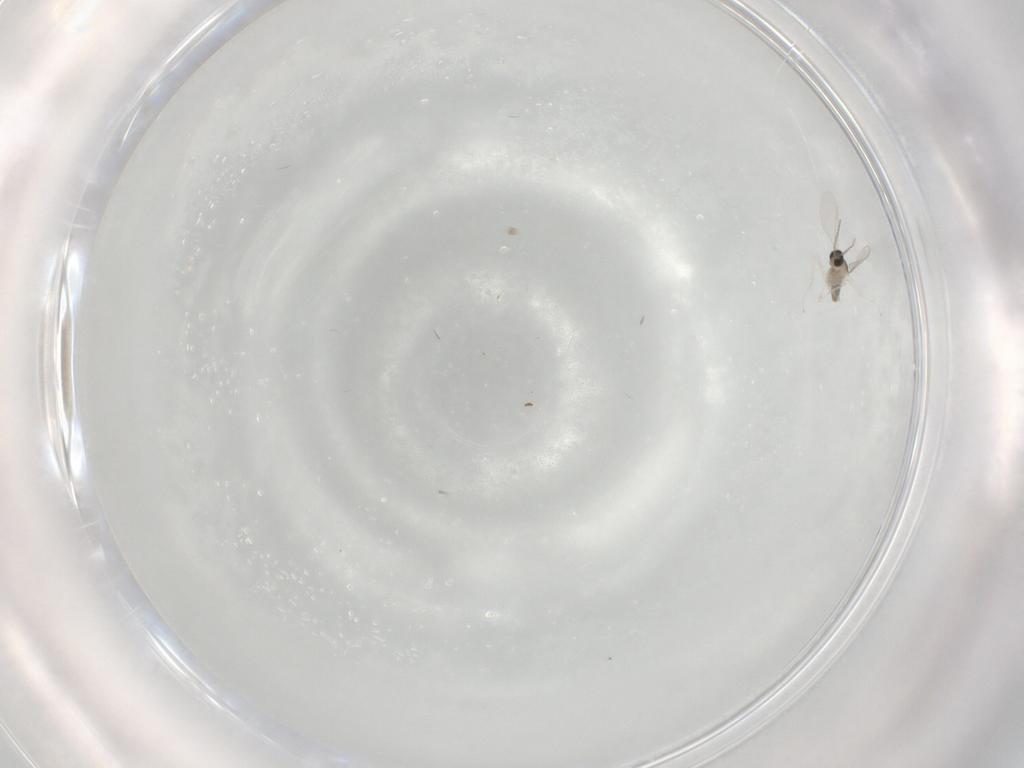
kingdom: Animalia
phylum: Arthropoda
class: Insecta
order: Diptera
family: Cecidomyiidae
